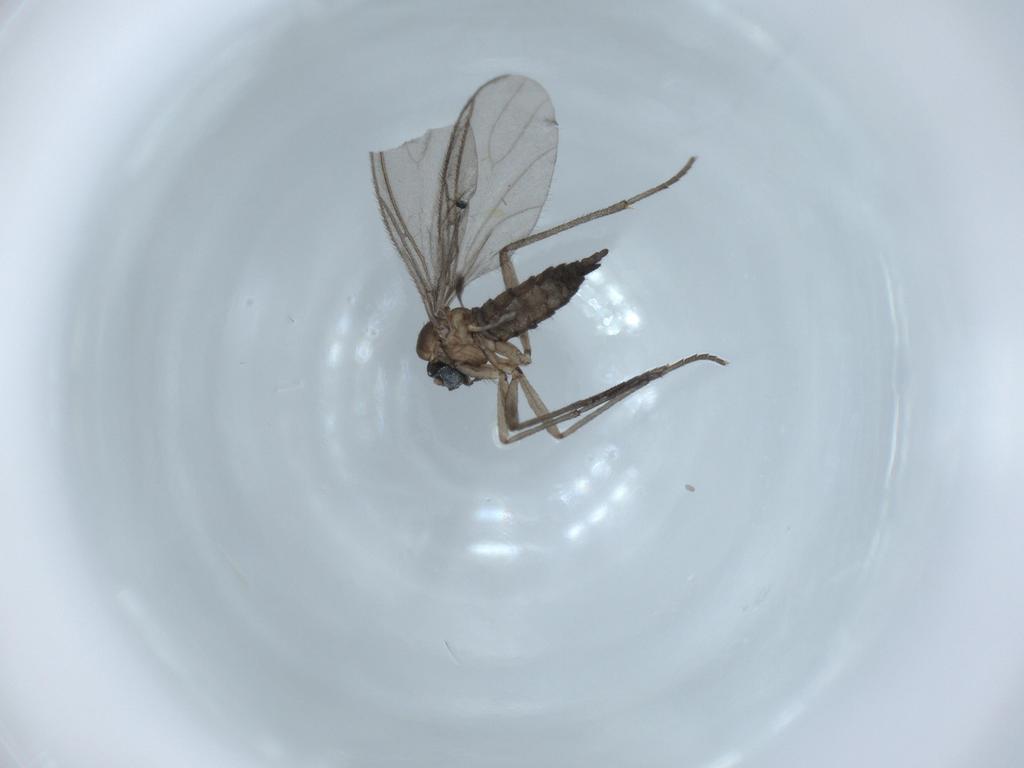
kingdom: Animalia
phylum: Arthropoda
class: Insecta
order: Diptera
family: Sciaridae
